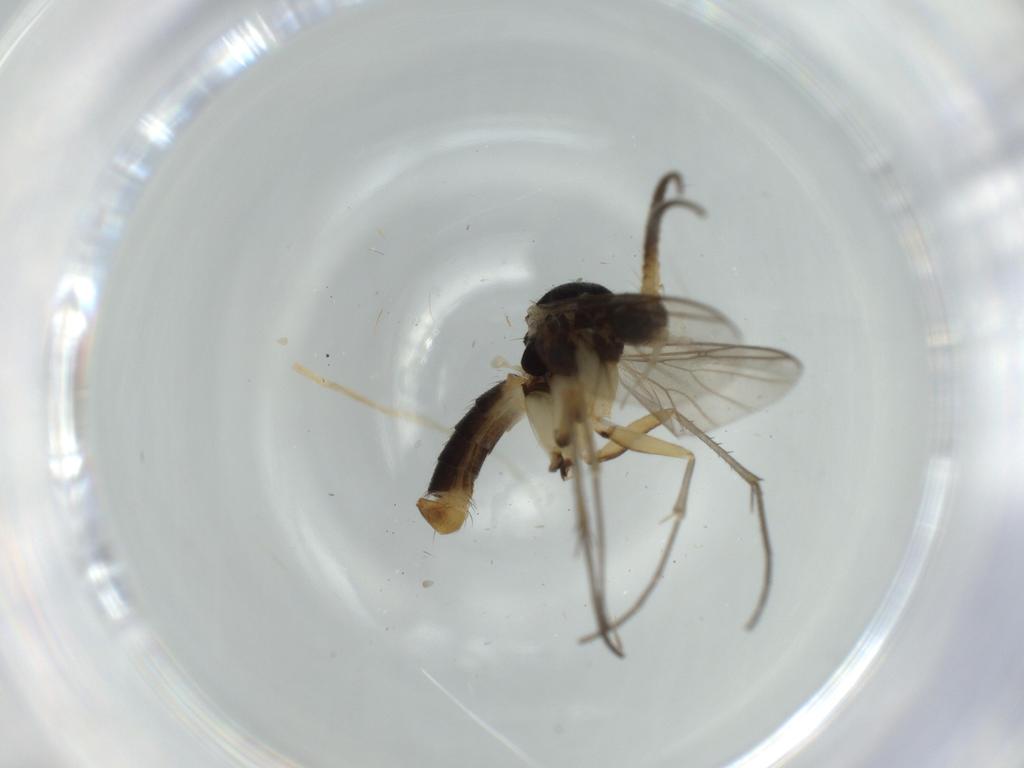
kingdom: Animalia
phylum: Arthropoda
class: Insecta
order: Diptera
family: Sciaridae
